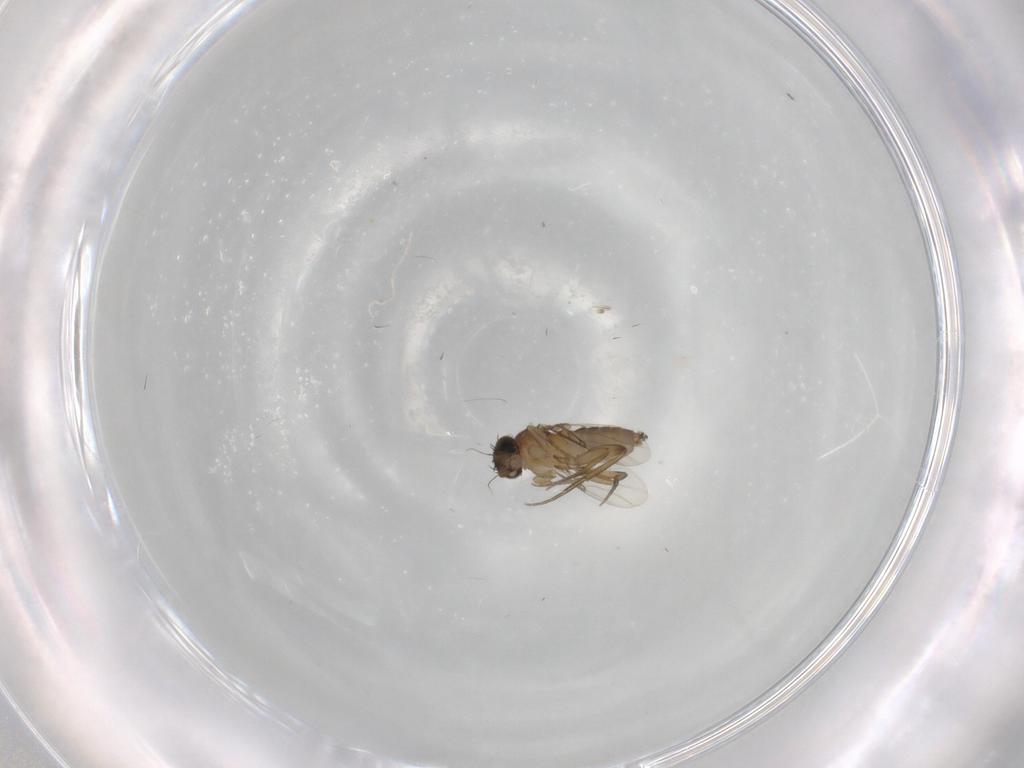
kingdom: Animalia
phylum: Arthropoda
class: Insecta
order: Diptera
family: Phoridae
